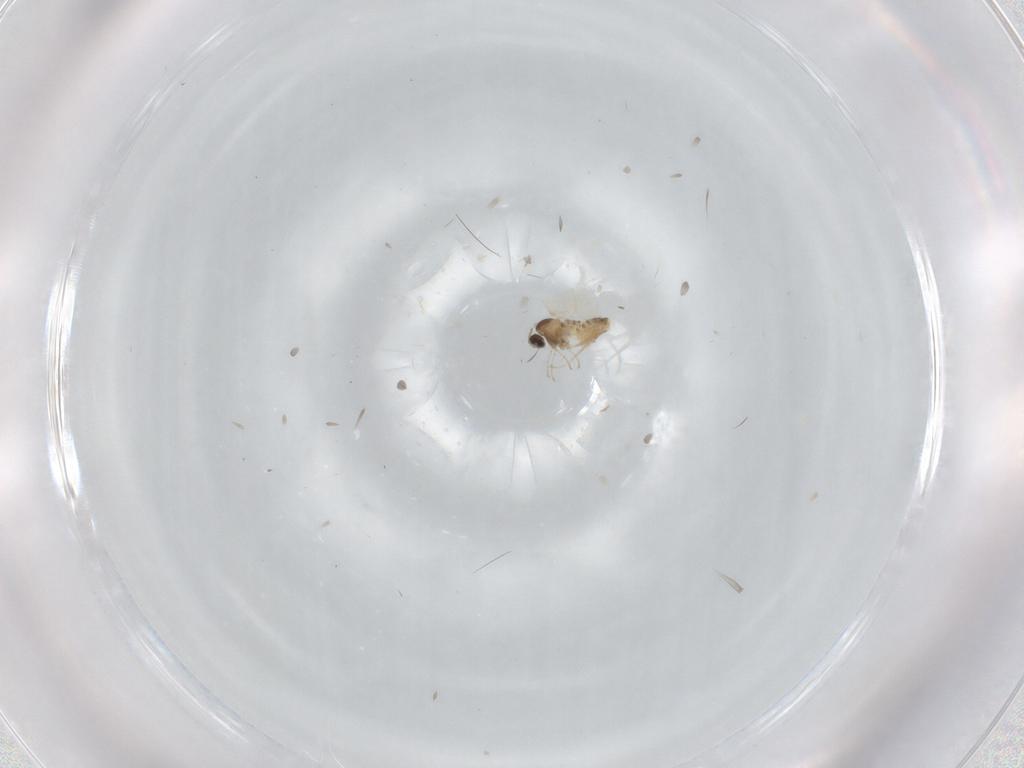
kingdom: Animalia
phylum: Arthropoda
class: Insecta
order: Diptera
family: Cecidomyiidae
